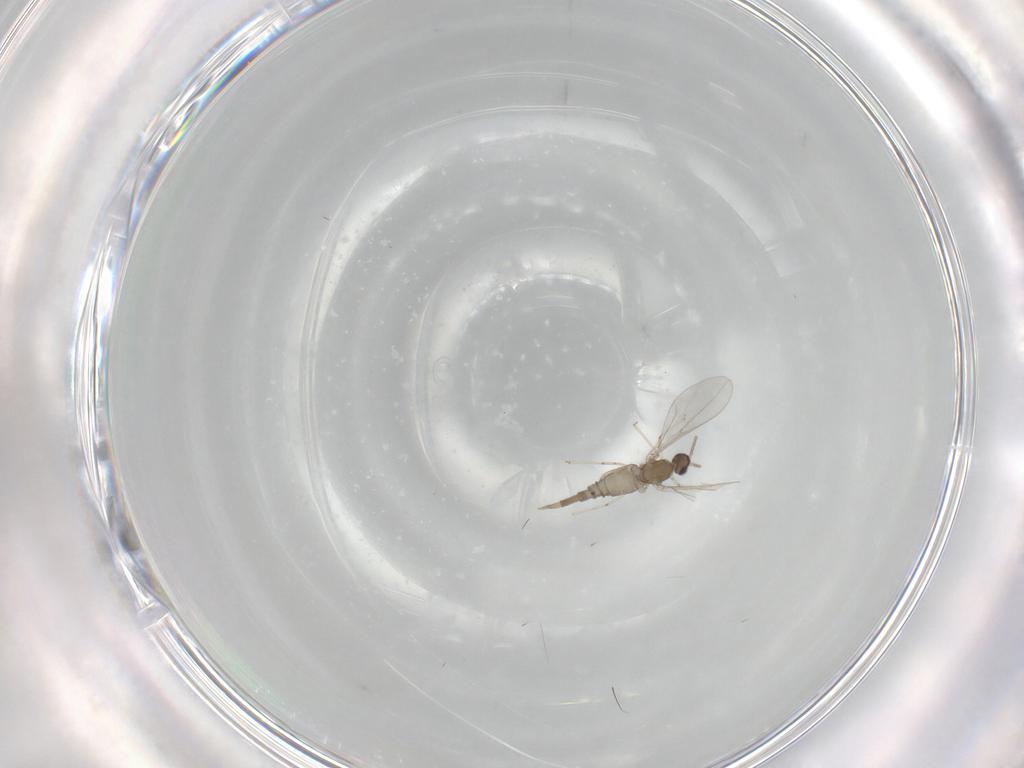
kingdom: Animalia
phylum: Arthropoda
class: Insecta
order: Diptera
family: Cecidomyiidae
